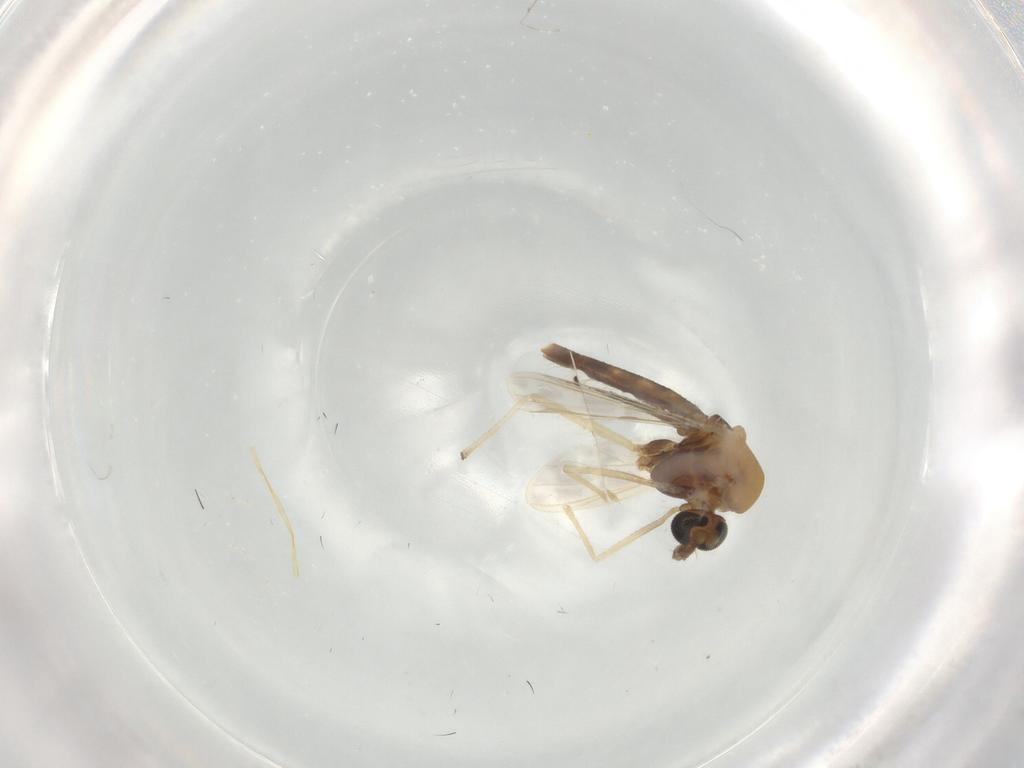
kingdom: Animalia
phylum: Arthropoda
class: Insecta
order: Diptera
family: Chironomidae
